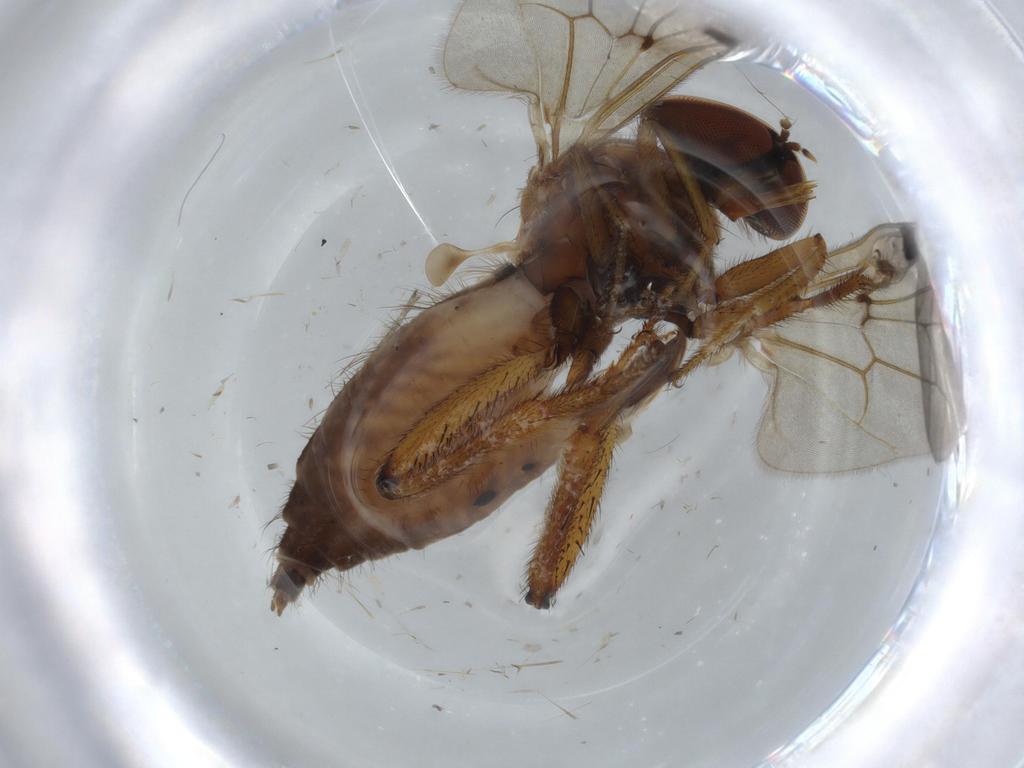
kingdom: Animalia
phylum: Arthropoda
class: Insecta
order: Diptera
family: Hybotidae
